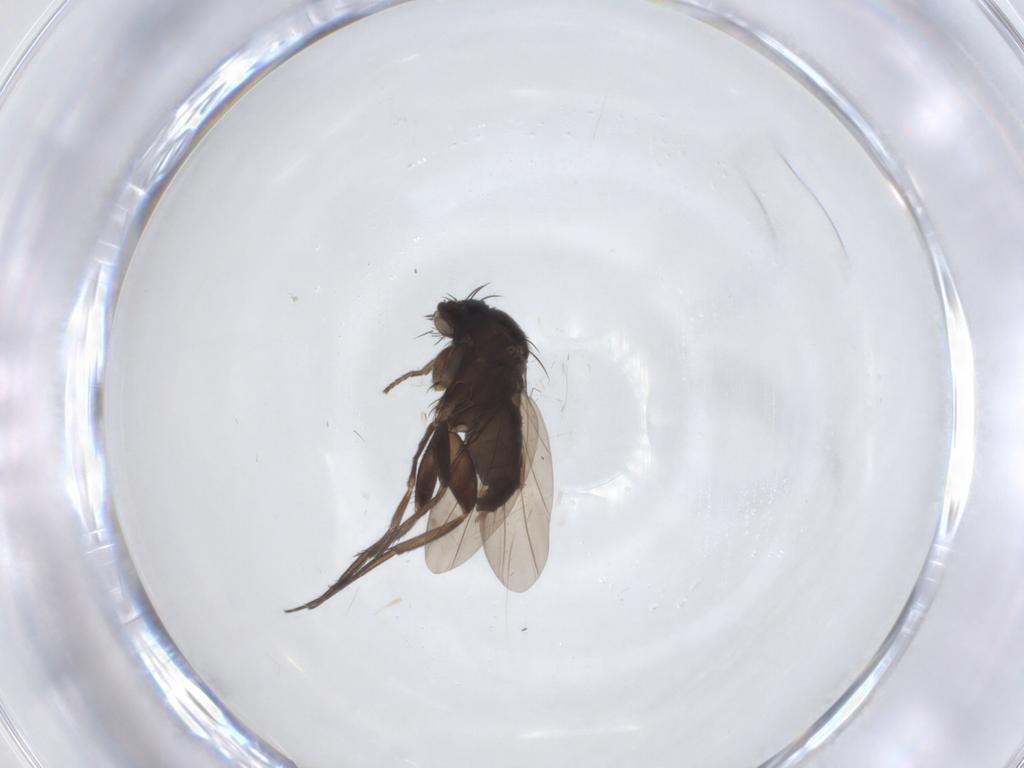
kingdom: Animalia
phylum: Arthropoda
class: Insecta
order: Diptera
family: Phoridae
